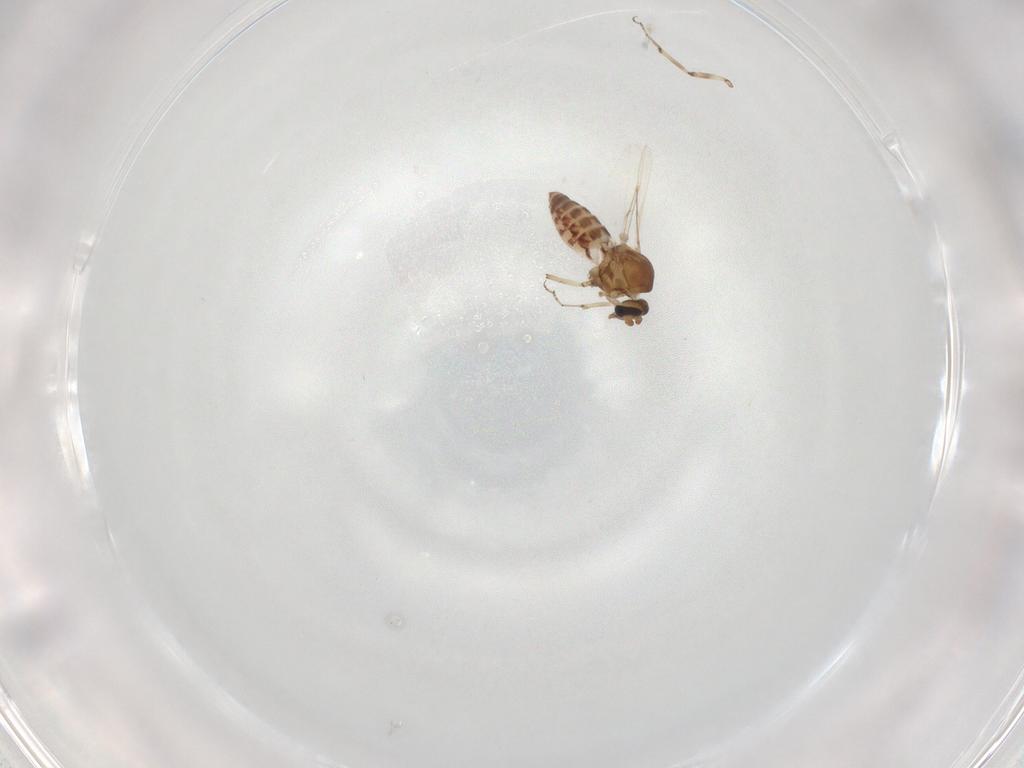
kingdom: Animalia
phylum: Arthropoda
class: Insecta
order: Diptera
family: Ceratopogonidae
